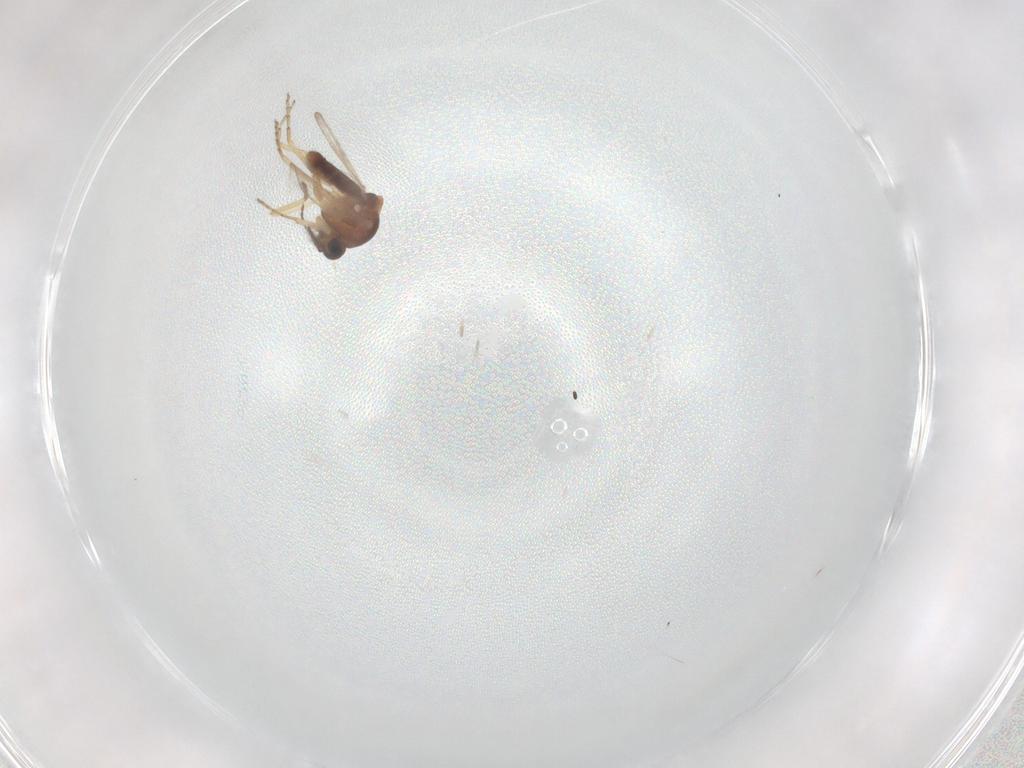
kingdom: Animalia
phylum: Arthropoda
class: Insecta
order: Diptera
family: Ceratopogonidae
